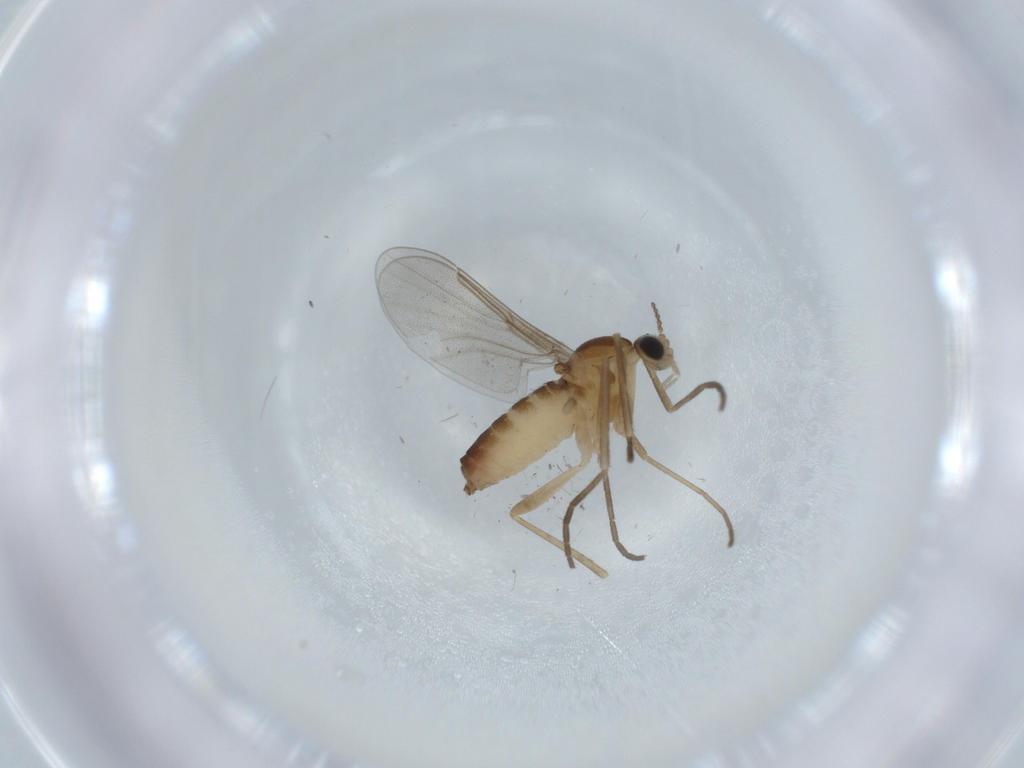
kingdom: Animalia
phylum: Arthropoda
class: Insecta
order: Diptera
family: Cecidomyiidae
